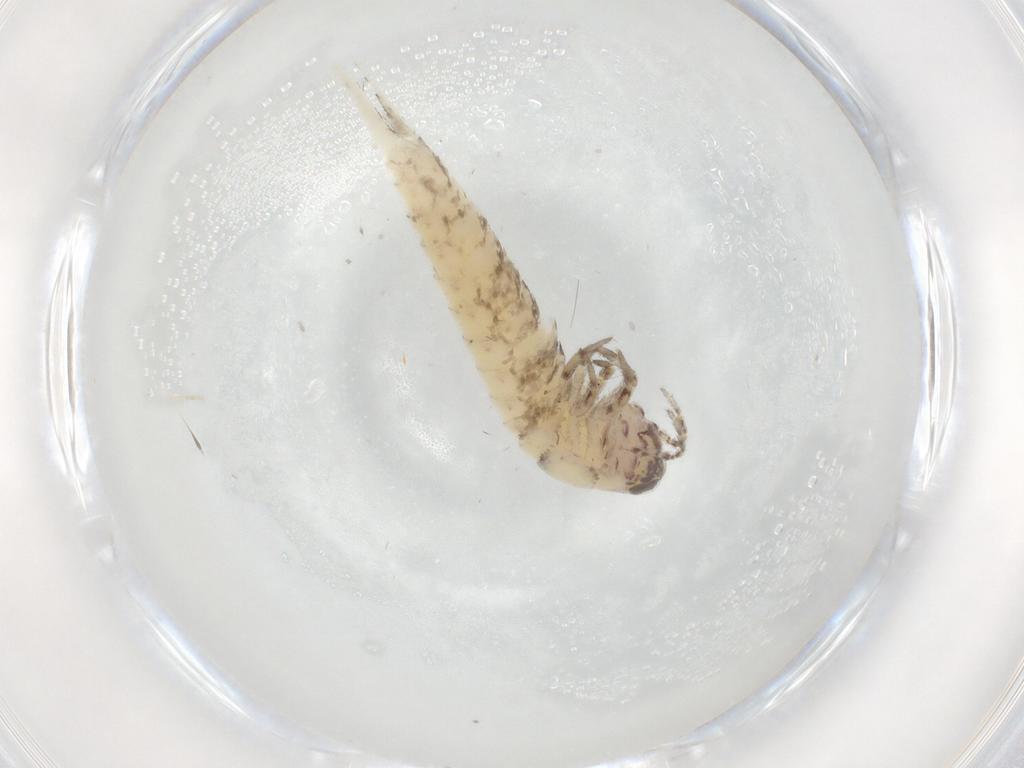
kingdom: Animalia
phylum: Arthropoda
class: Insecta
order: Archaeognatha
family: Machilidae
